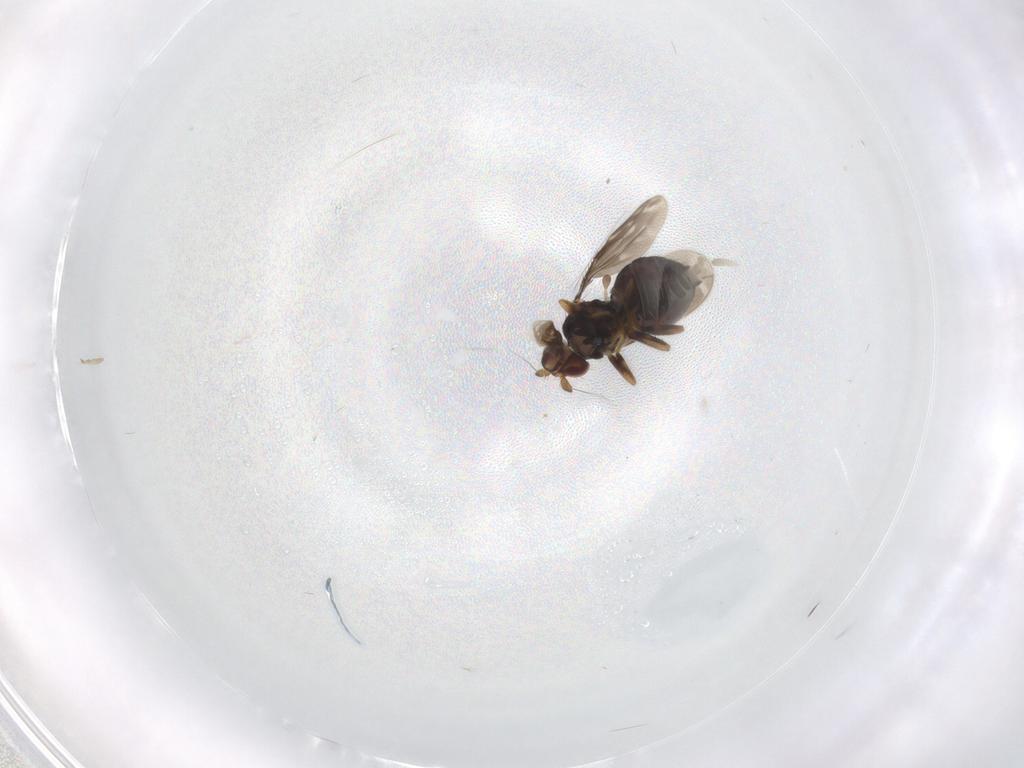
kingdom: Animalia
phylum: Arthropoda
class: Insecta
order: Diptera
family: Sphaeroceridae
